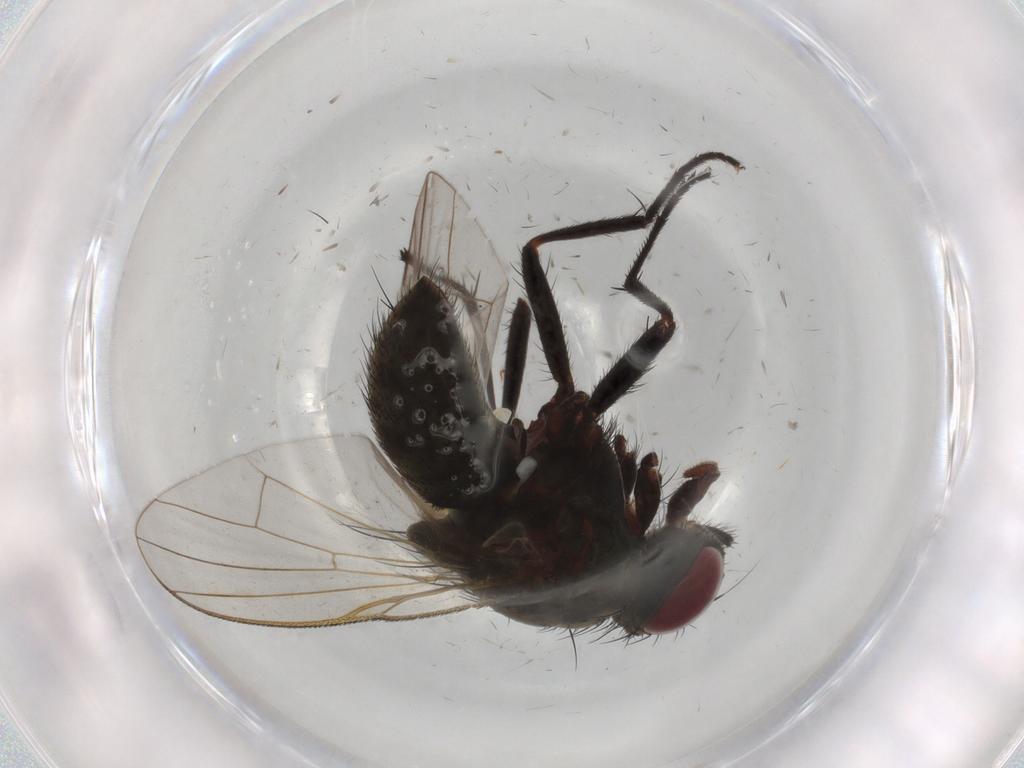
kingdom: Animalia
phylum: Arthropoda
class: Insecta
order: Diptera
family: Muscidae
